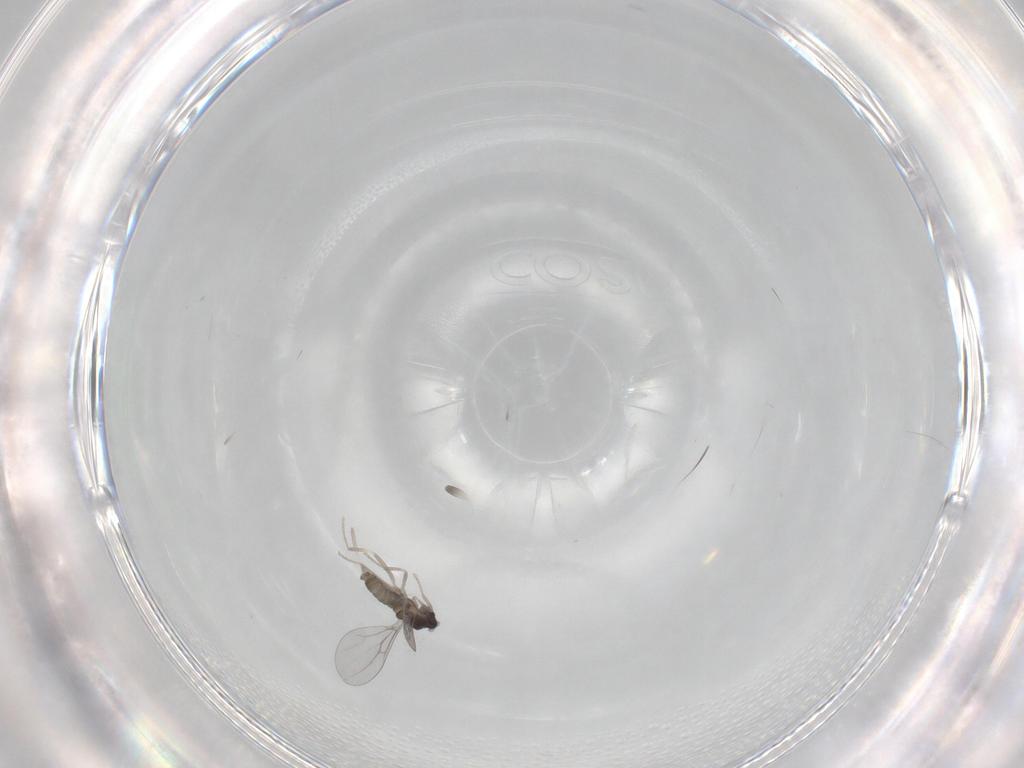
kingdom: Animalia
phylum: Arthropoda
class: Insecta
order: Diptera
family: Cecidomyiidae
